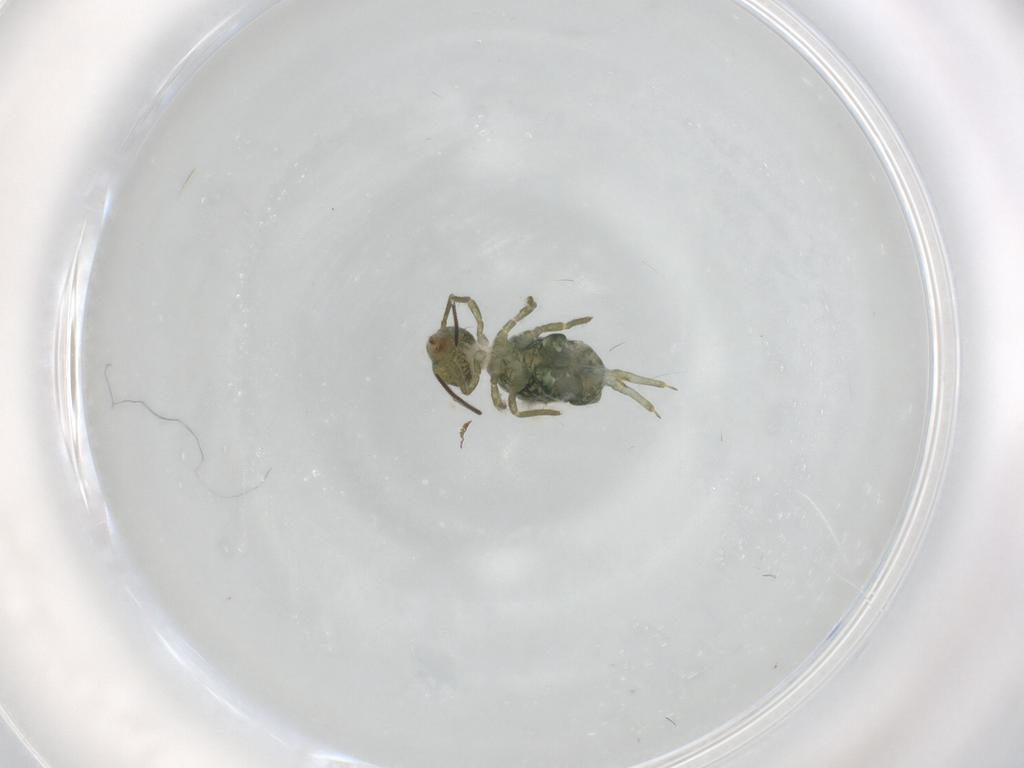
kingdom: Animalia
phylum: Arthropoda
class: Collembola
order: Symphypleona
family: Sminthuridae
